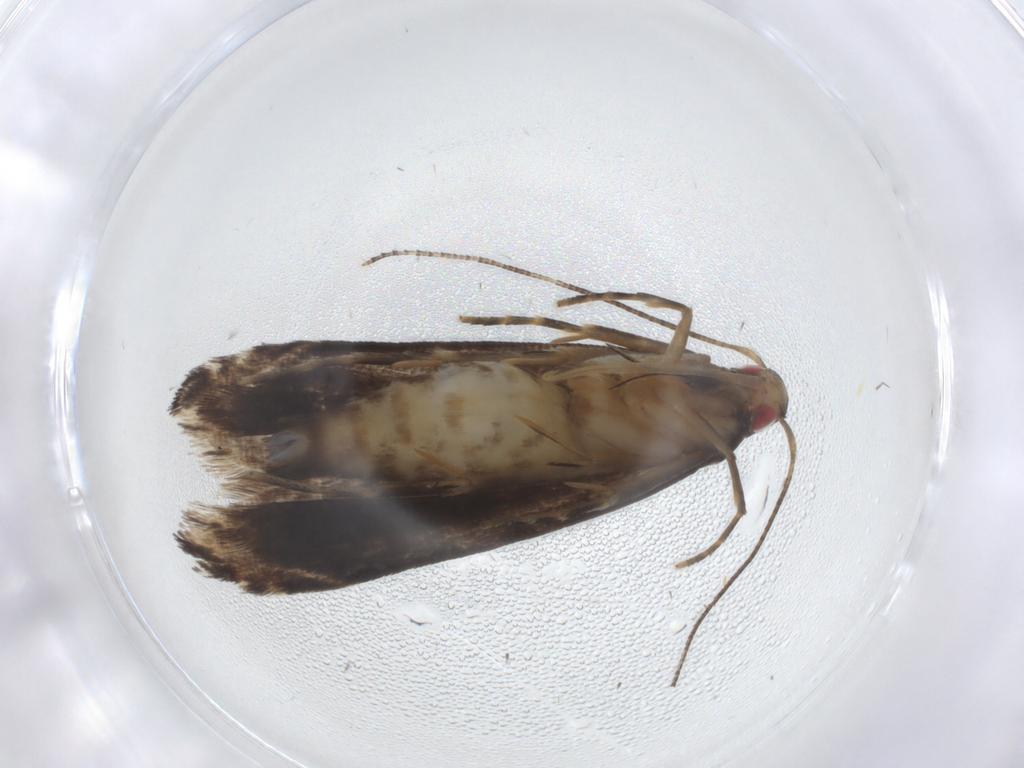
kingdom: Animalia
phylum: Arthropoda
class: Insecta
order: Lepidoptera
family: Gelechiidae
